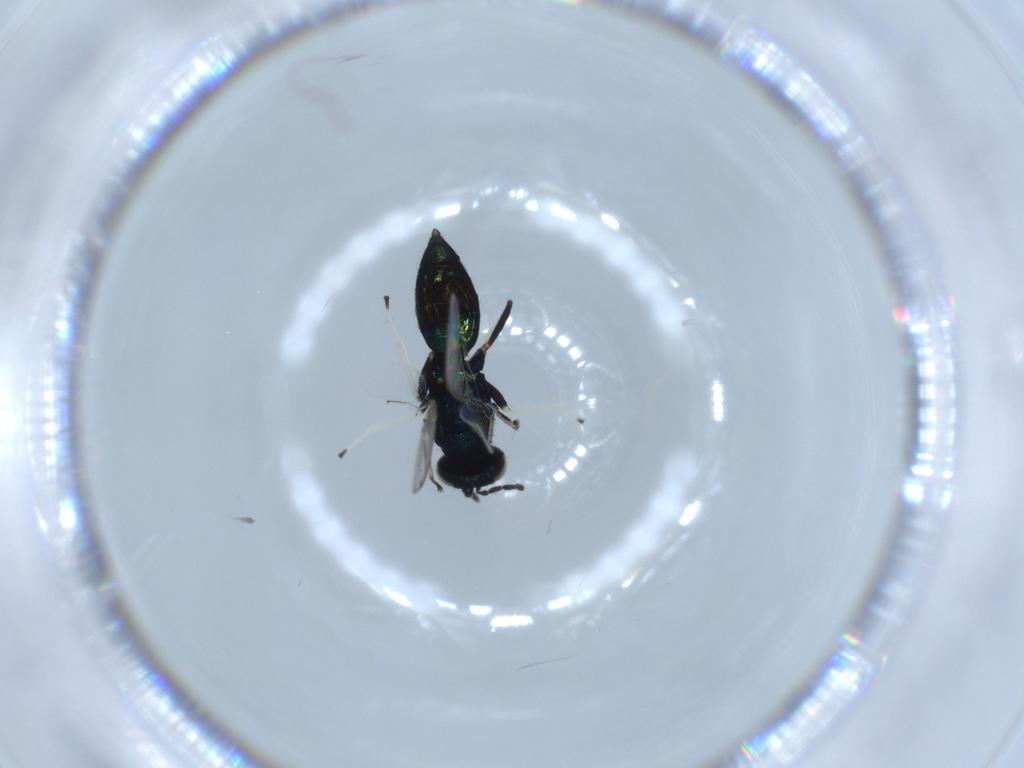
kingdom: Animalia
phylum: Arthropoda
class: Insecta
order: Hymenoptera
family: Eulophidae
